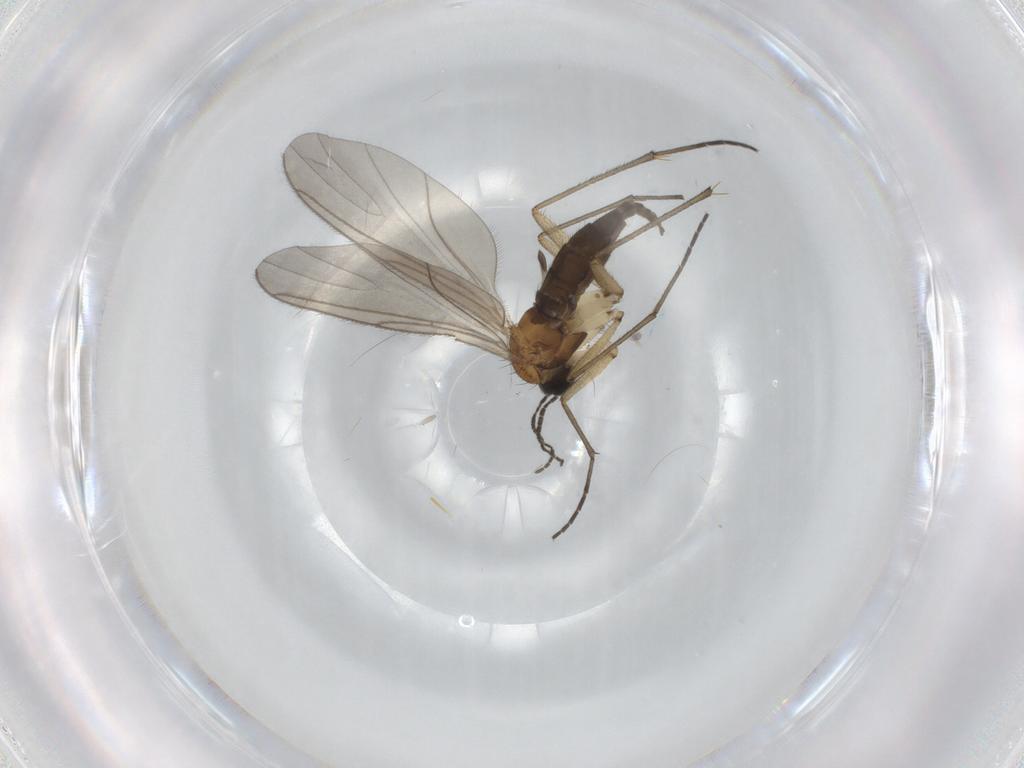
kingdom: Animalia
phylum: Arthropoda
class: Insecta
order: Diptera
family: Sciaridae
